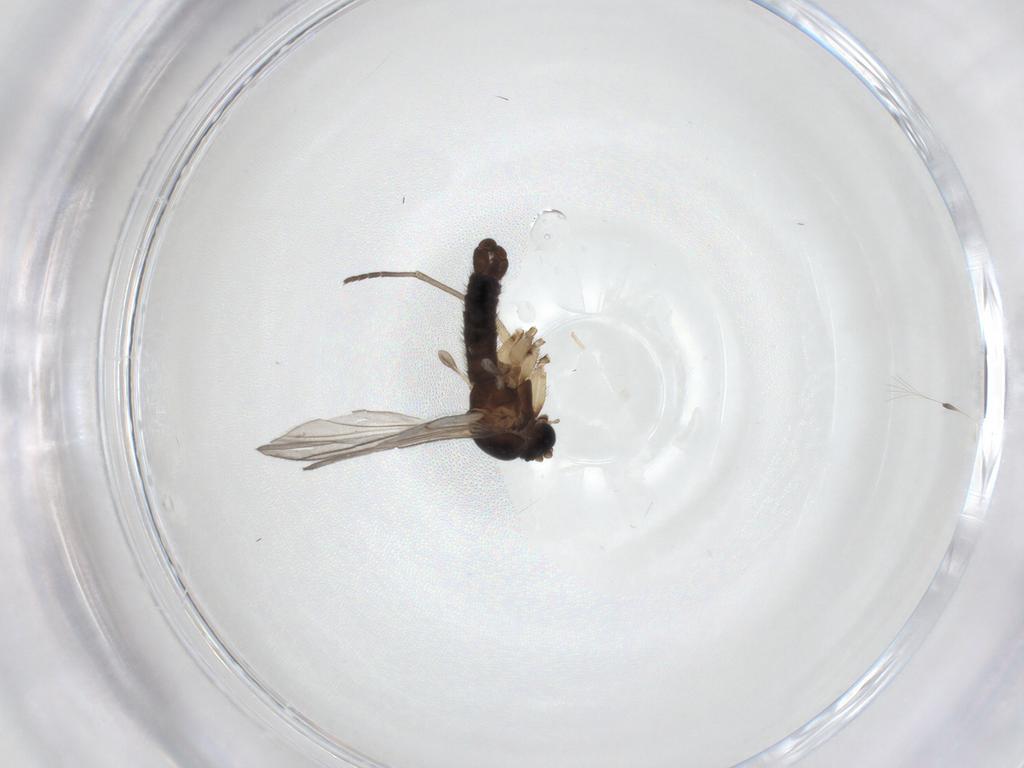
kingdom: Animalia
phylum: Arthropoda
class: Insecta
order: Diptera
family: Sciaridae
